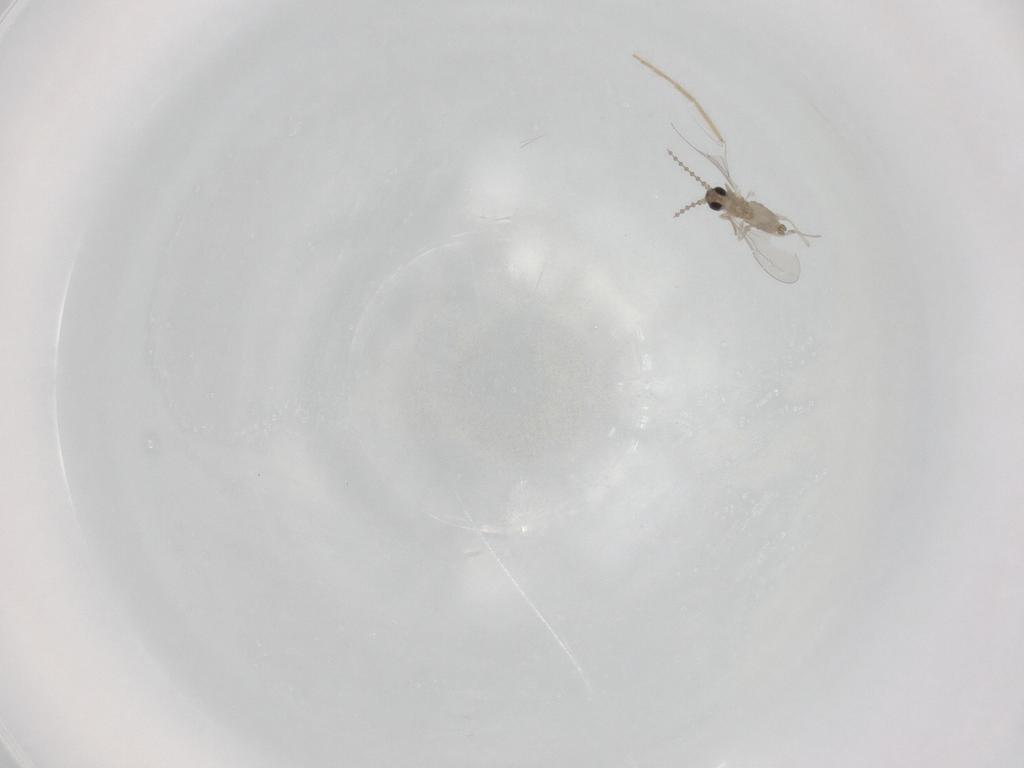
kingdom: Animalia
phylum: Arthropoda
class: Insecta
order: Diptera
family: Cecidomyiidae
